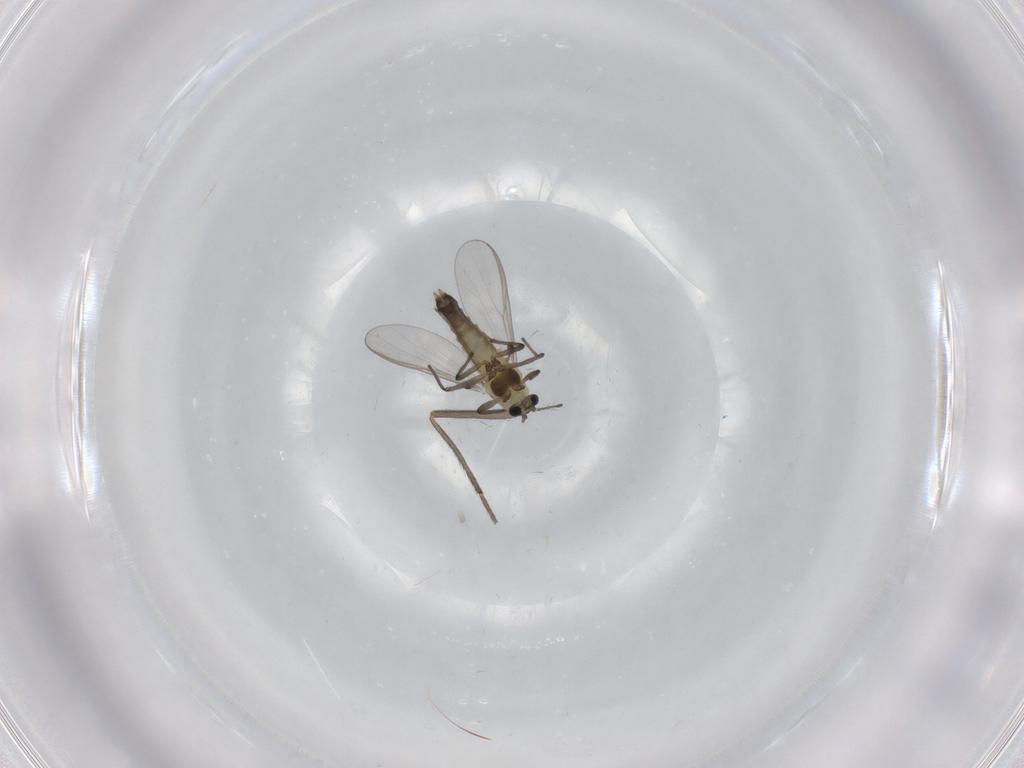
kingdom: Animalia
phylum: Arthropoda
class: Insecta
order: Diptera
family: Chironomidae
